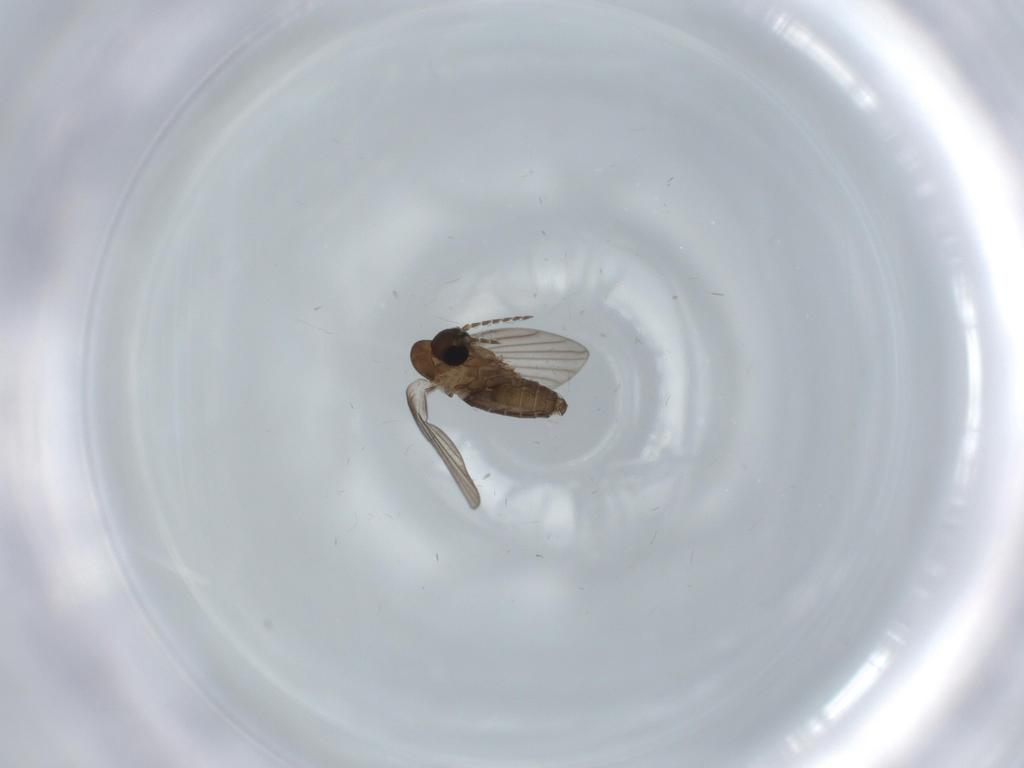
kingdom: Animalia
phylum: Arthropoda
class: Insecta
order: Diptera
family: Psychodidae
